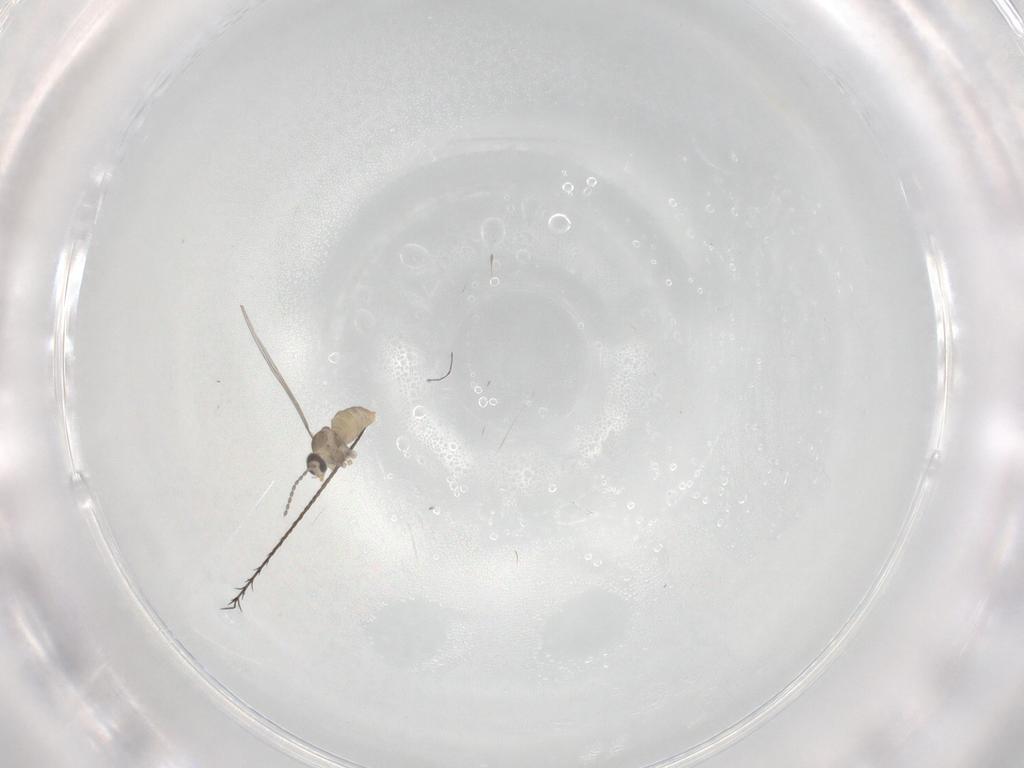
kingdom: Animalia
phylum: Arthropoda
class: Insecta
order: Diptera
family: Cecidomyiidae
